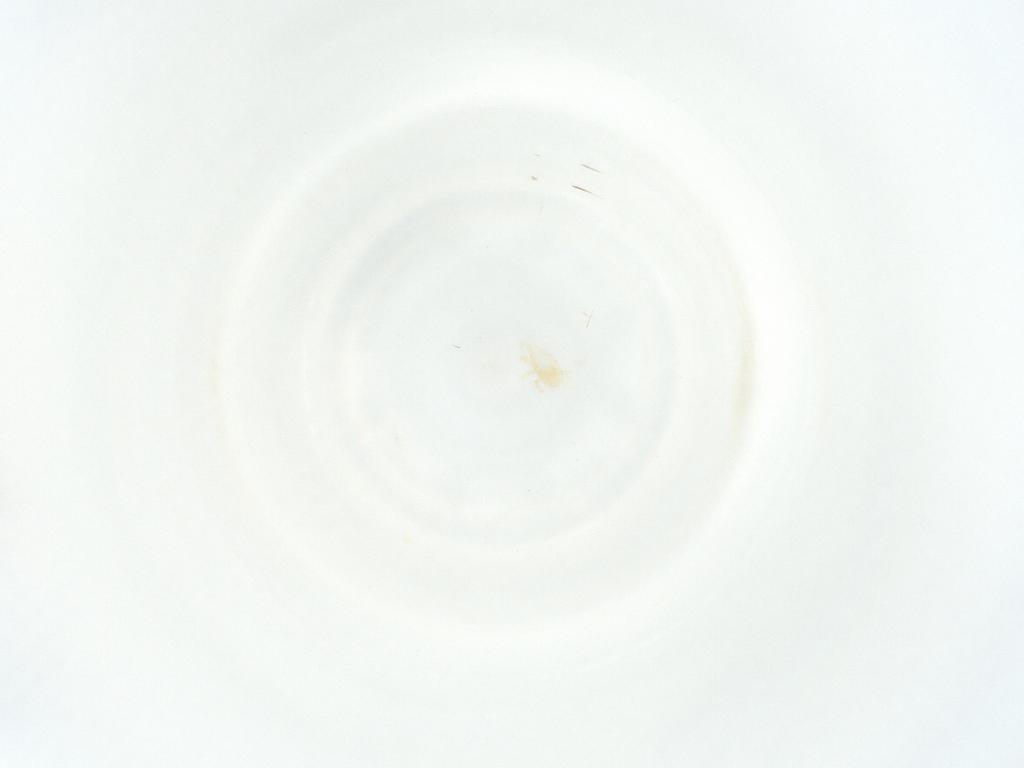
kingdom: Animalia
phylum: Arthropoda
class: Arachnida
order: Mesostigmata
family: Phytoseiidae
